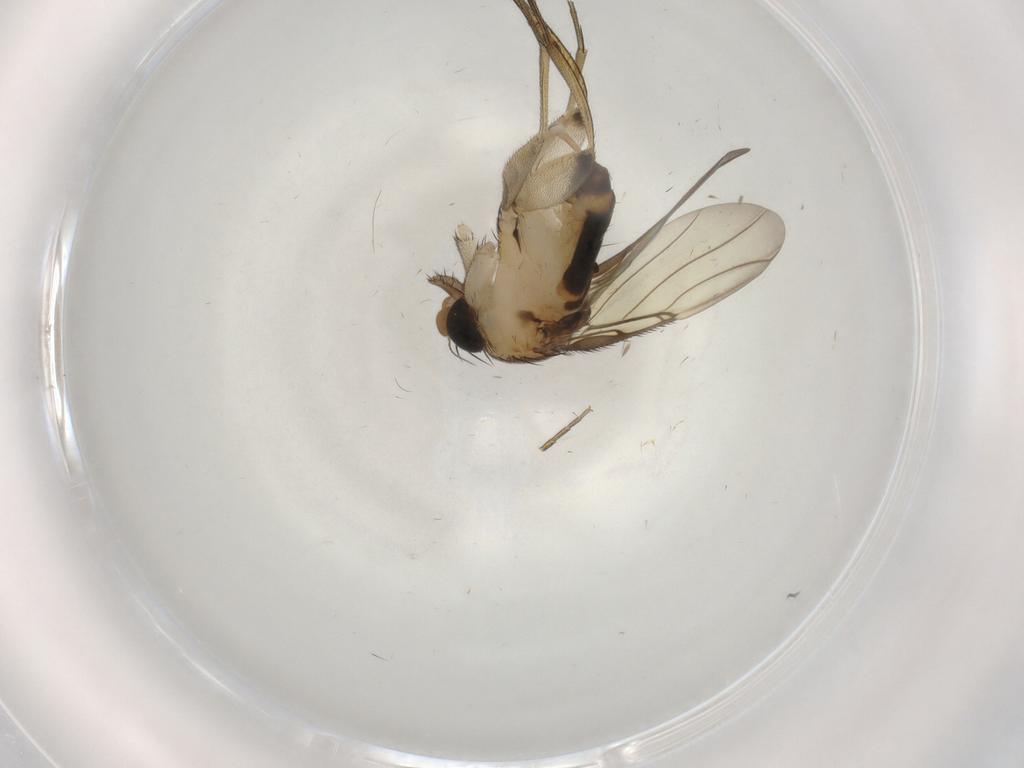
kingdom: Animalia
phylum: Arthropoda
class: Insecta
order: Diptera
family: Phoridae
